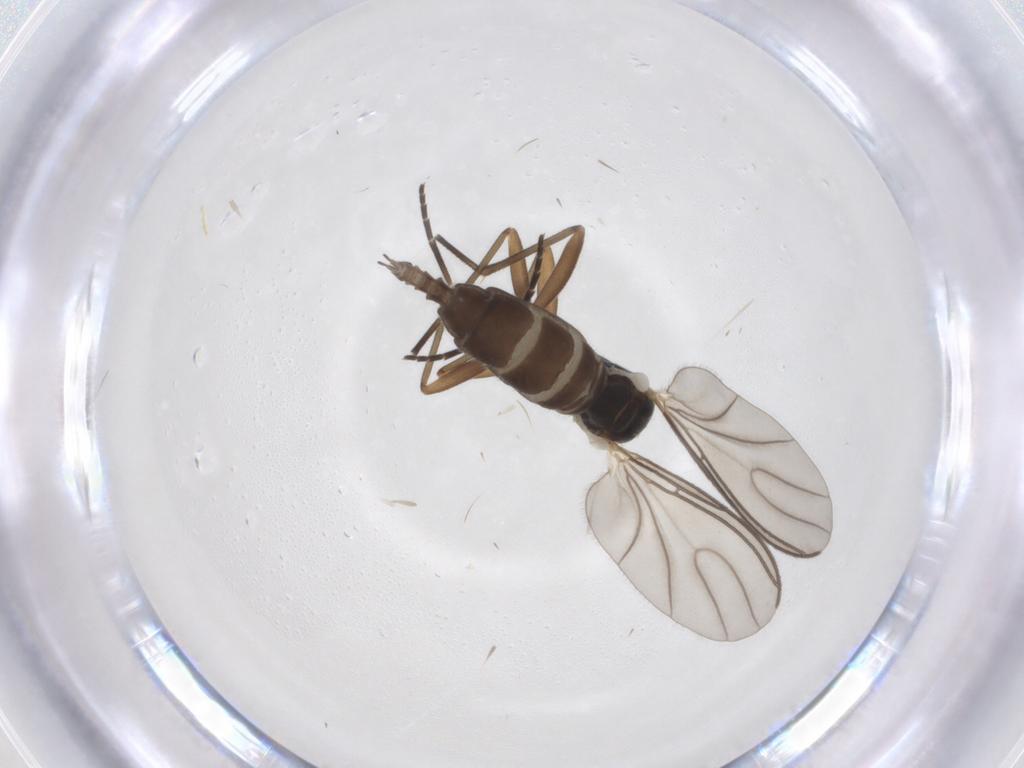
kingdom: Animalia
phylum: Arthropoda
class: Insecta
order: Diptera
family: Sciaridae
